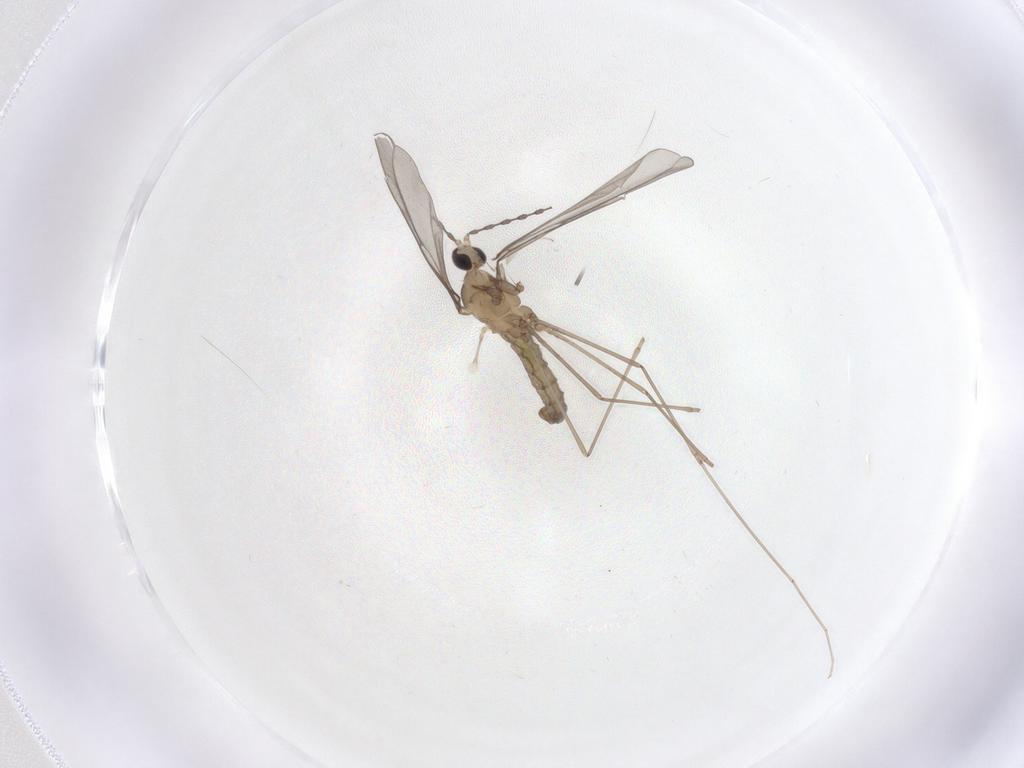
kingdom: Animalia
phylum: Arthropoda
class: Insecta
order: Diptera
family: Cecidomyiidae
